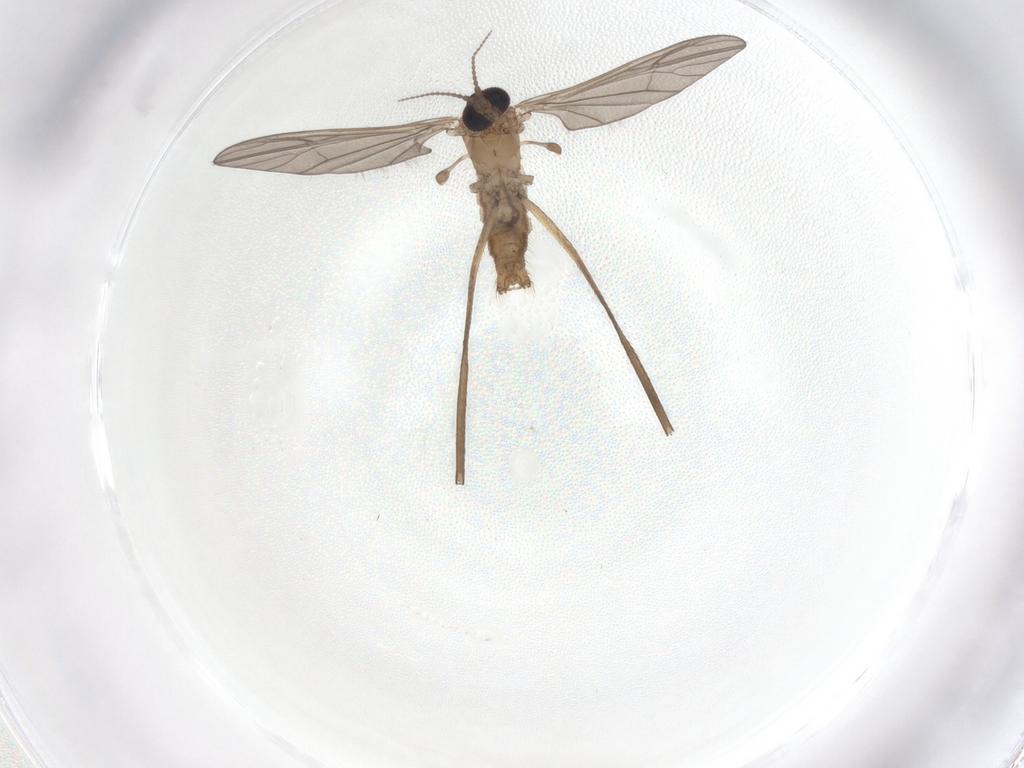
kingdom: Animalia
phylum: Arthropoda
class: Insecta
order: Diptera
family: Limoniidae
